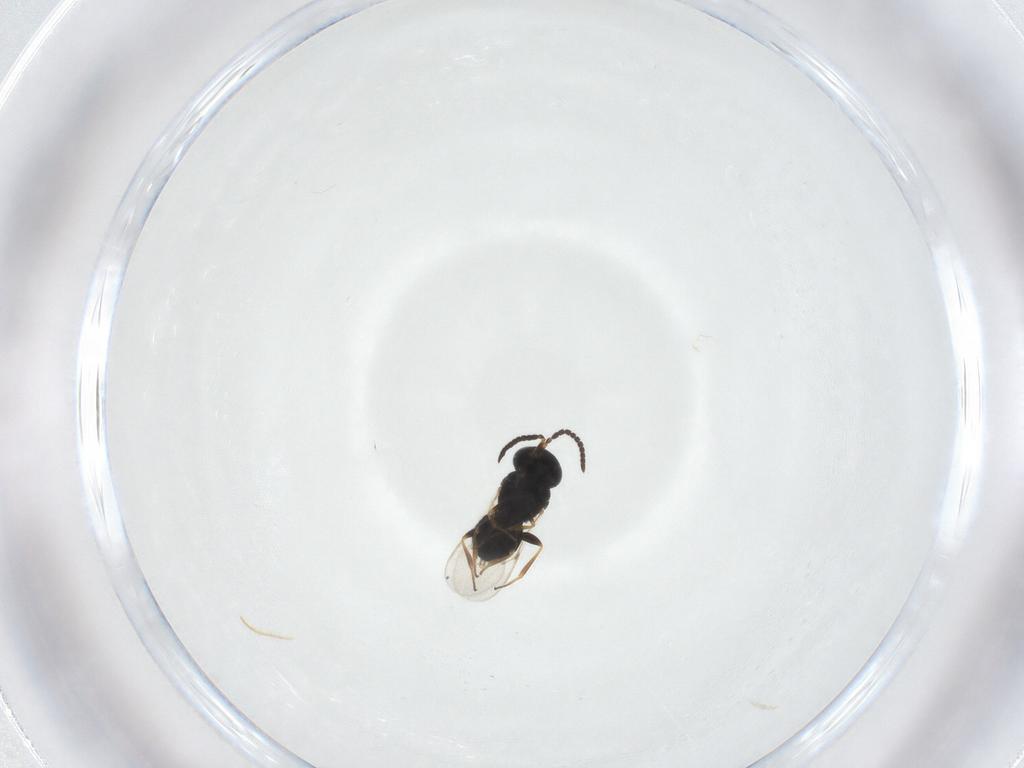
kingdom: Animalia
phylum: Arthropoda
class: Insecta
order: Hymenoptera
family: Scelionidae
